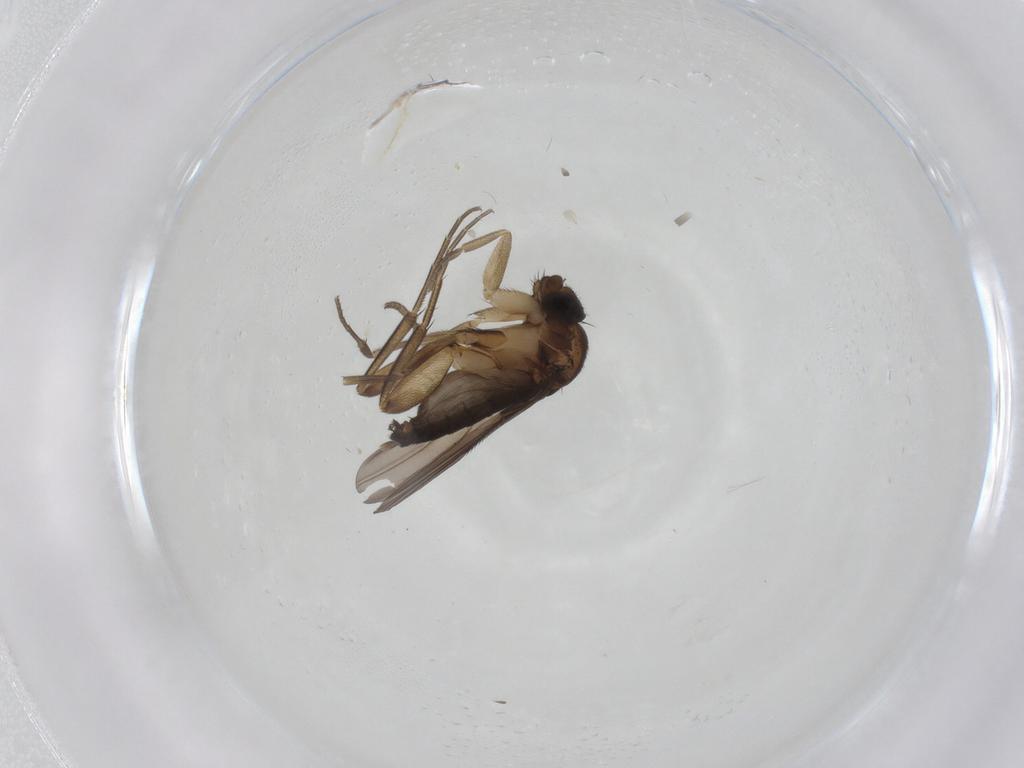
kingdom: Animalia
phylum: Arthropoda
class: Insecta
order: Diptera
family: Phoridae
